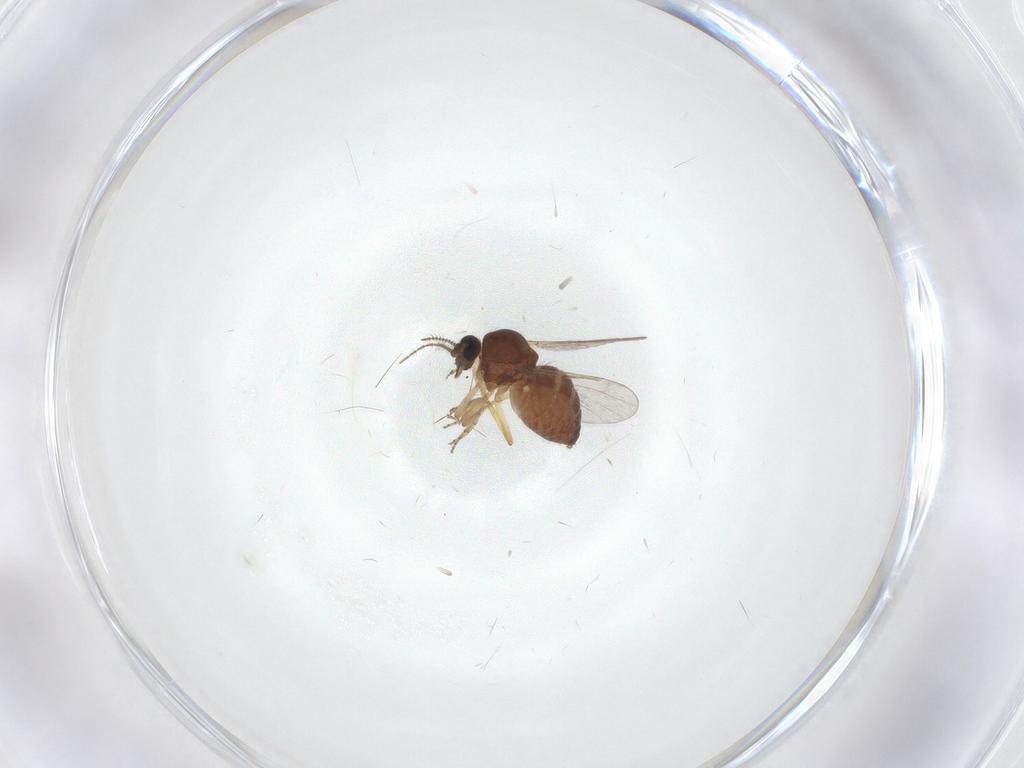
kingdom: Animalia
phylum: Arthropoda
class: Insecta
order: Diptera
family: Ceratopogonidae
